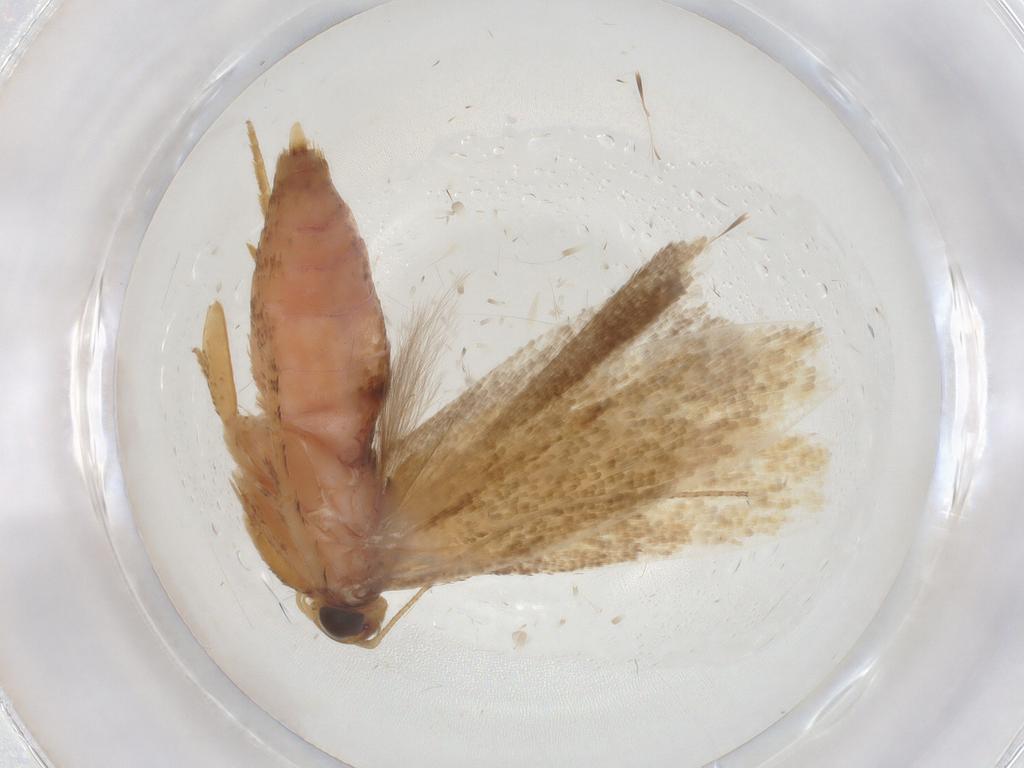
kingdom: Animalia
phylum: Arthropoda
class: Insecta
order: Lepidoptera
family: Gelechiidae
